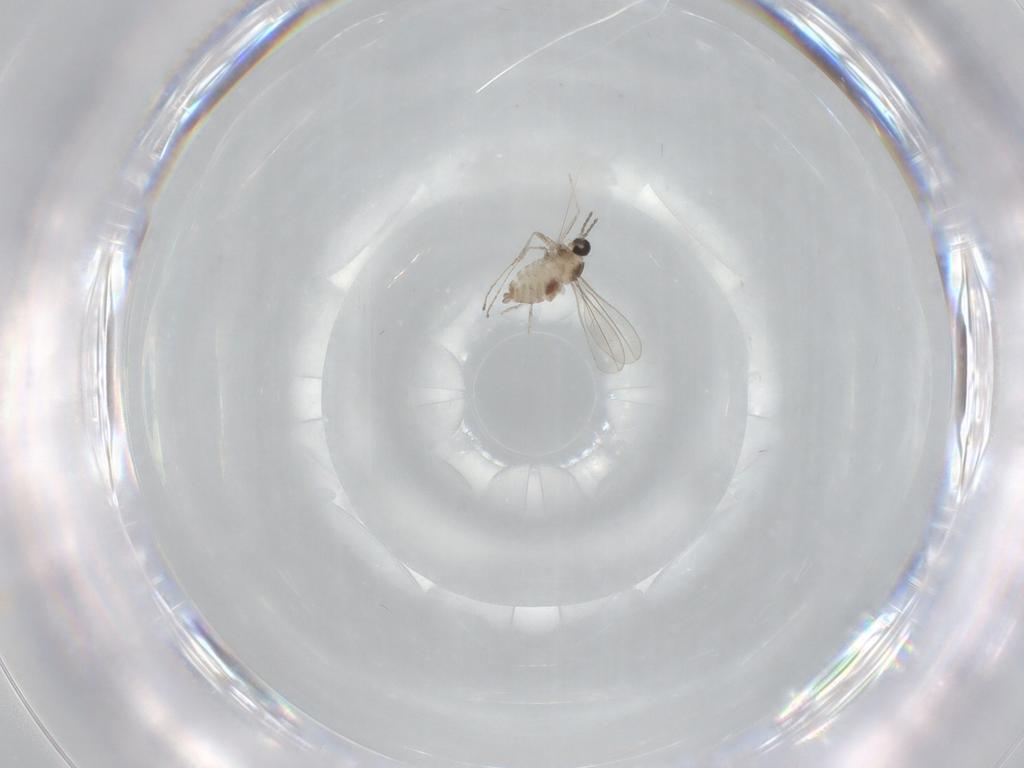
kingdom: Animalia
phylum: Arthropoda
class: Insecta
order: Diptera
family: Cecidomyiidae
